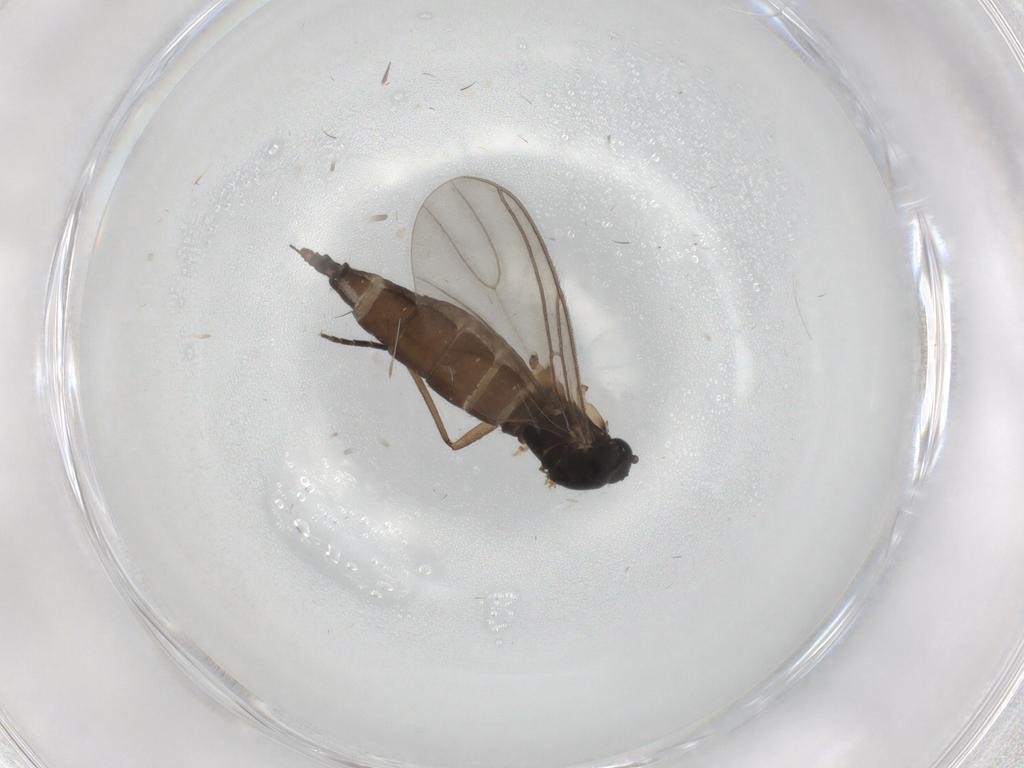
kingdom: Animalia
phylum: Arthropoda
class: Insecta
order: Diptera
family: Sciaridae
